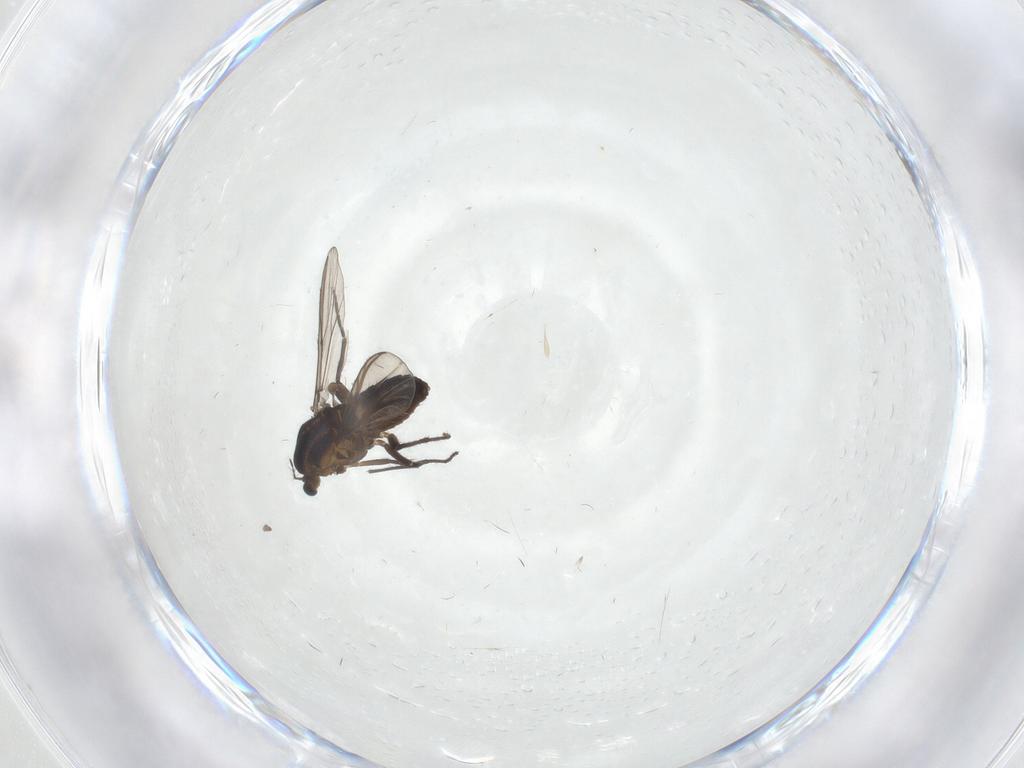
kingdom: Animalia
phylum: Arthropoda
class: Insecta
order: Diptera
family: Chironomidae
